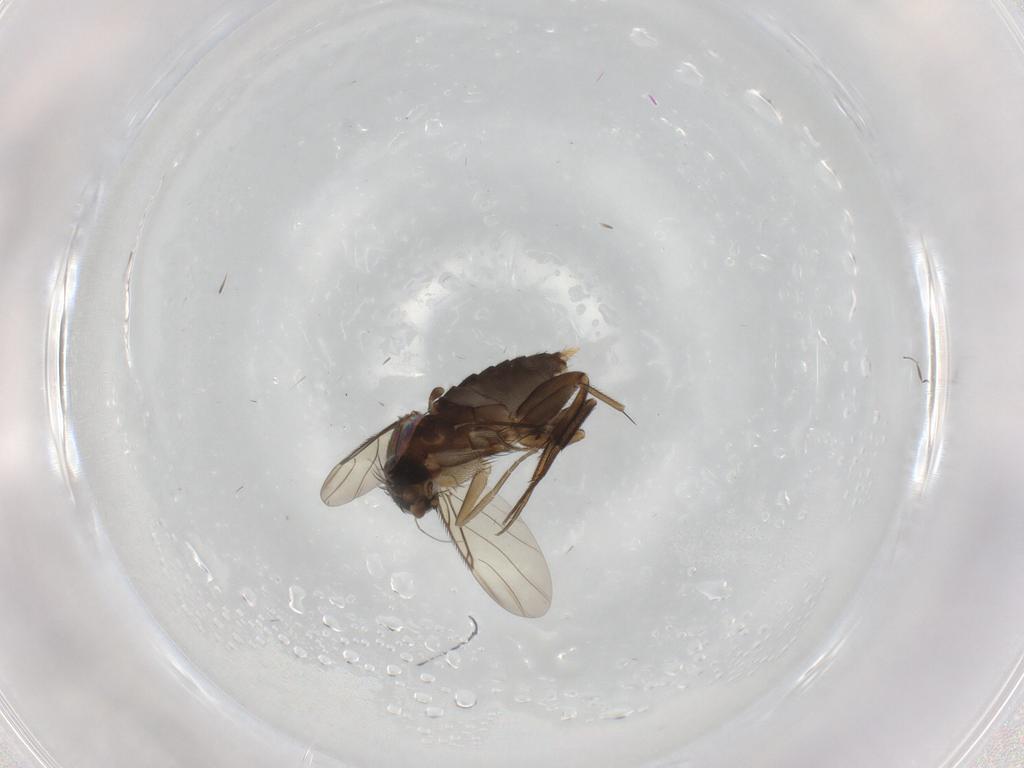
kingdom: Animalia
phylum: Arthropoda
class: Insecta
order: Diptera
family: Phoridae
